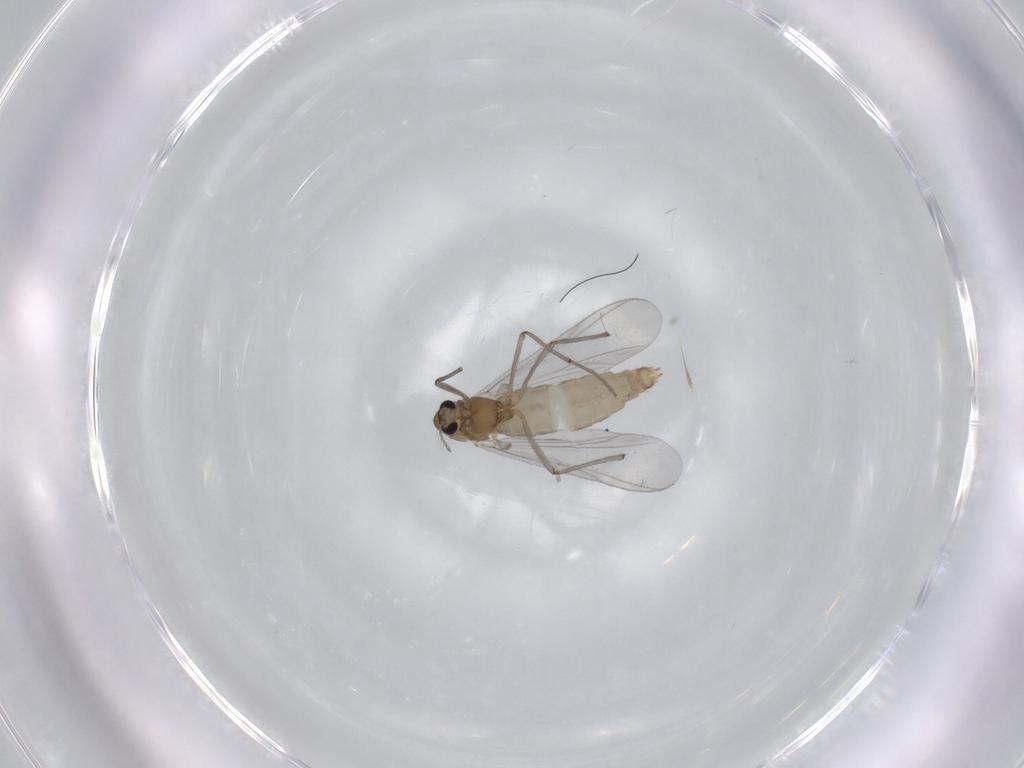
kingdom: Animalia
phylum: Arthropoda
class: Insecta
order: Diptera
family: Chironomidae
